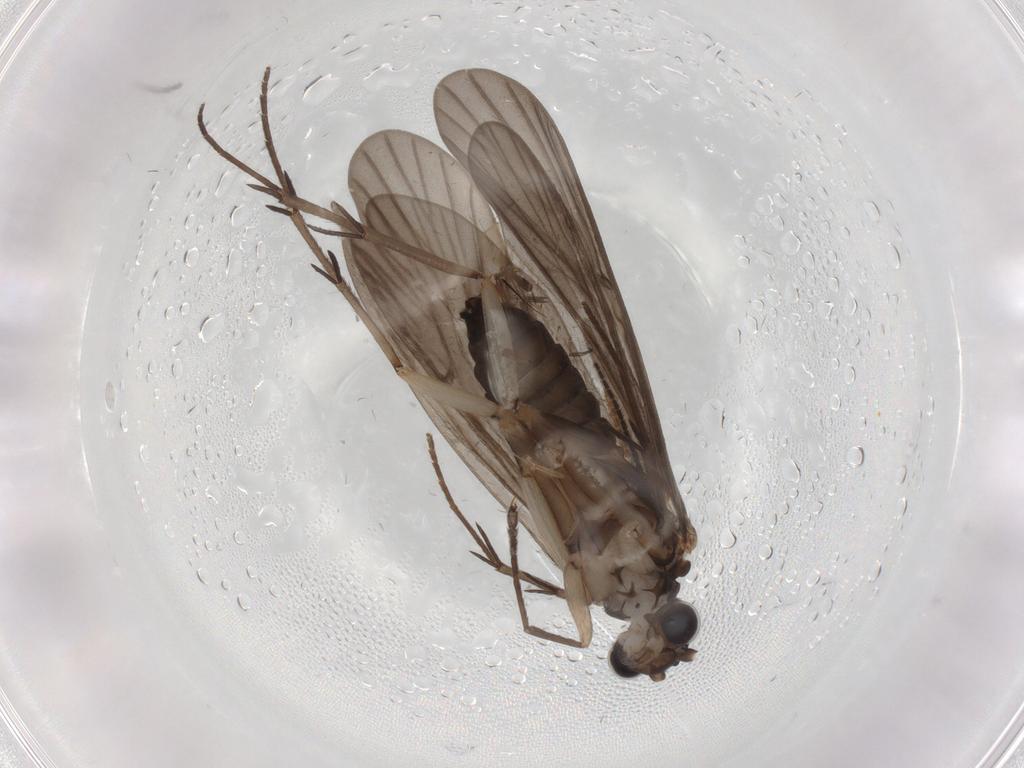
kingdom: Animalia
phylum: Arthropoda
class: Insecta
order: Trichoptera
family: Philopotamidae
